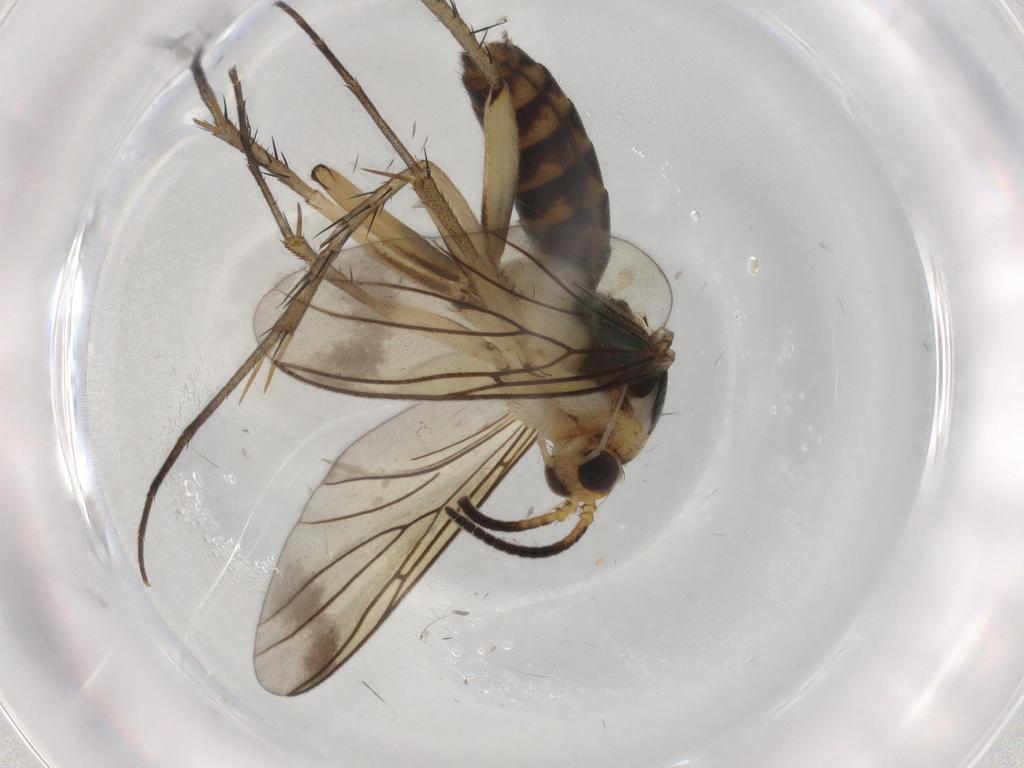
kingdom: Animalia
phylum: Arthropoda
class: Insecta
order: Diptera
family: Mycetophilidae
